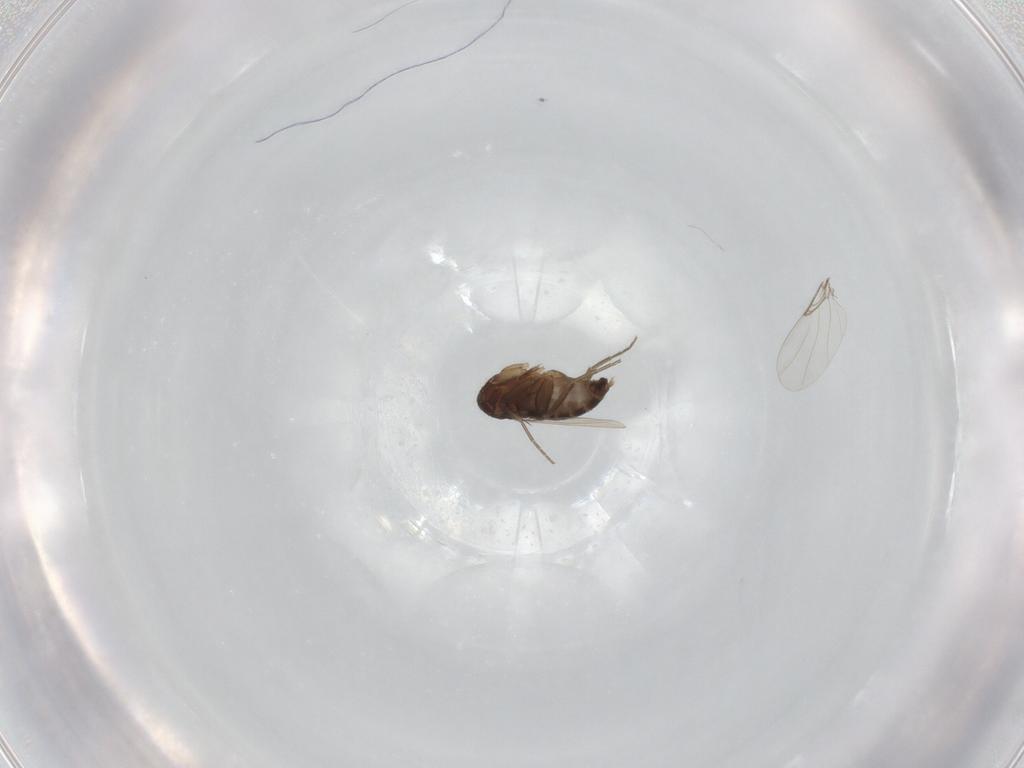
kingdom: Animalia
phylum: Arthropoda
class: Insecta
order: Diptera
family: Phoridae
